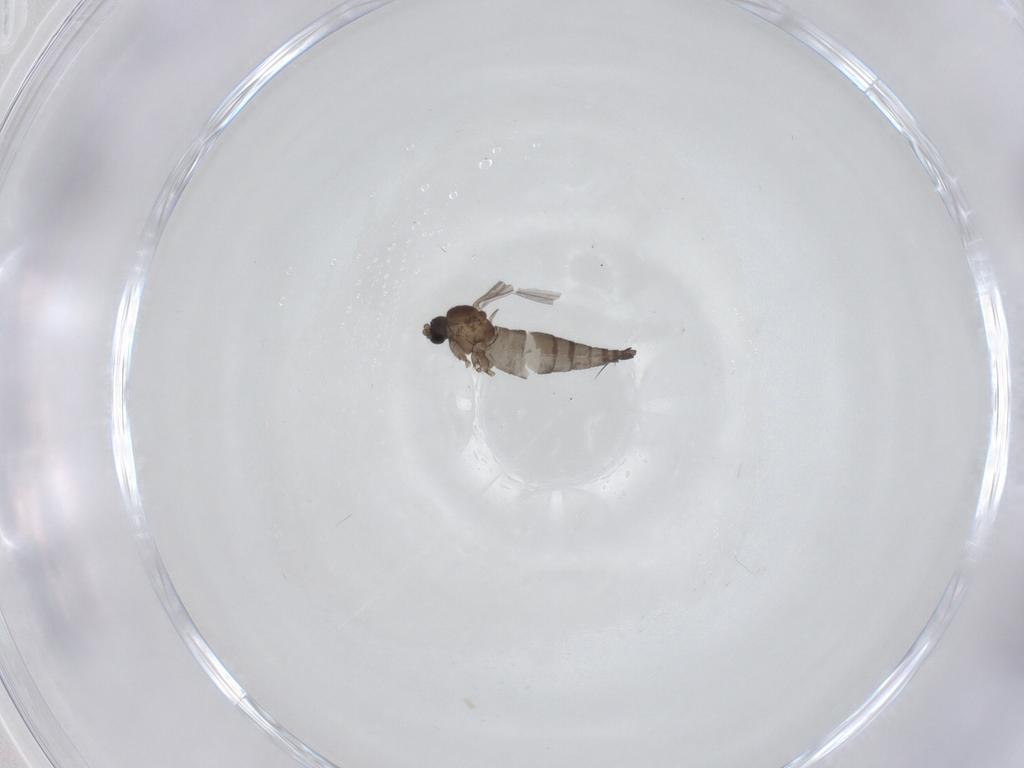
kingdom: Animalia
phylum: Arthropoda
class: Insecta
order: Diptera
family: Sciaridae
